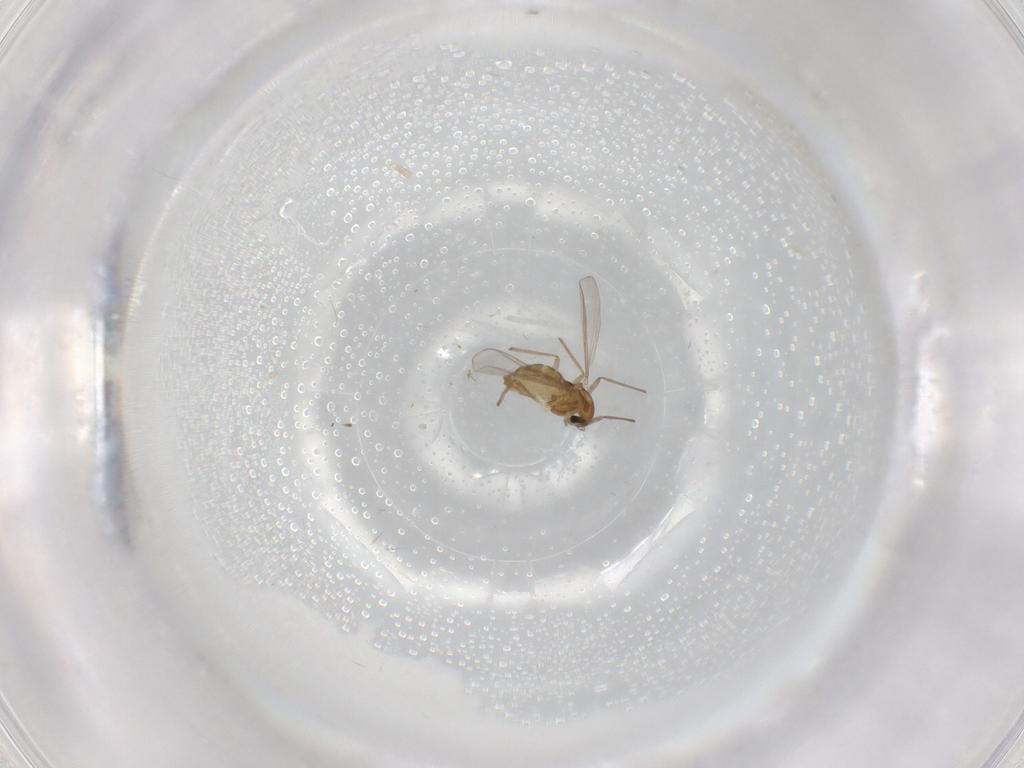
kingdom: Animalia
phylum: Arthropoda
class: Insecta
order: Diptera
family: Chironomidae
